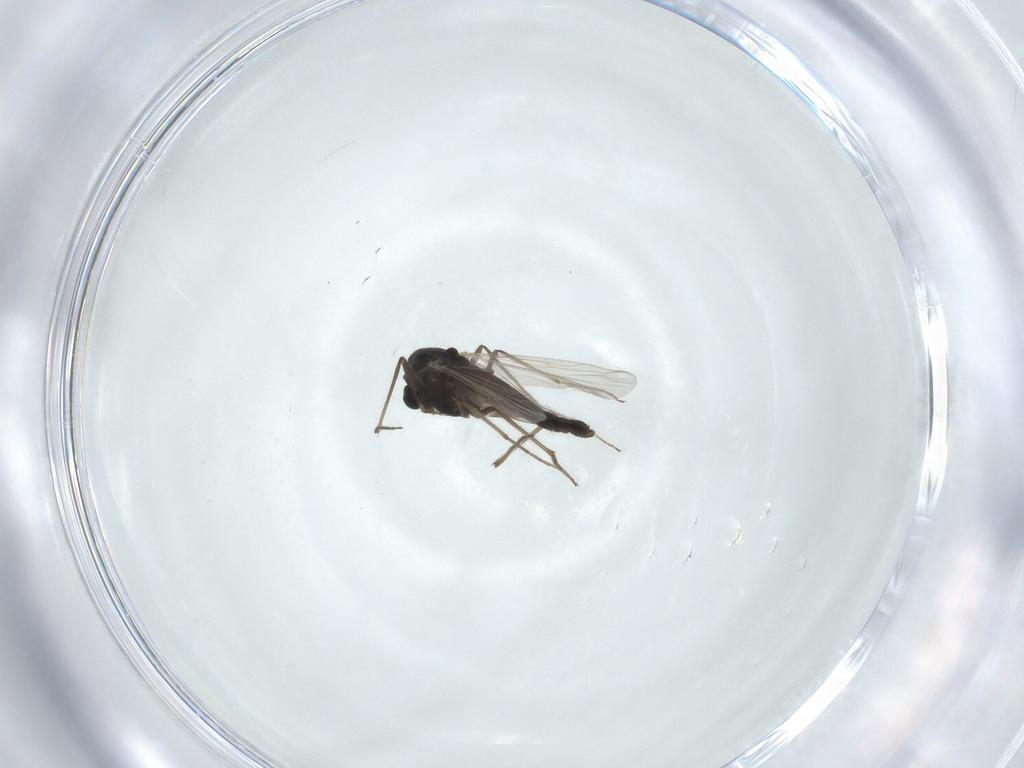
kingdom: Animalia
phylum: Arthropoda
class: Insecta
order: Diptera
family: Chironomidae
